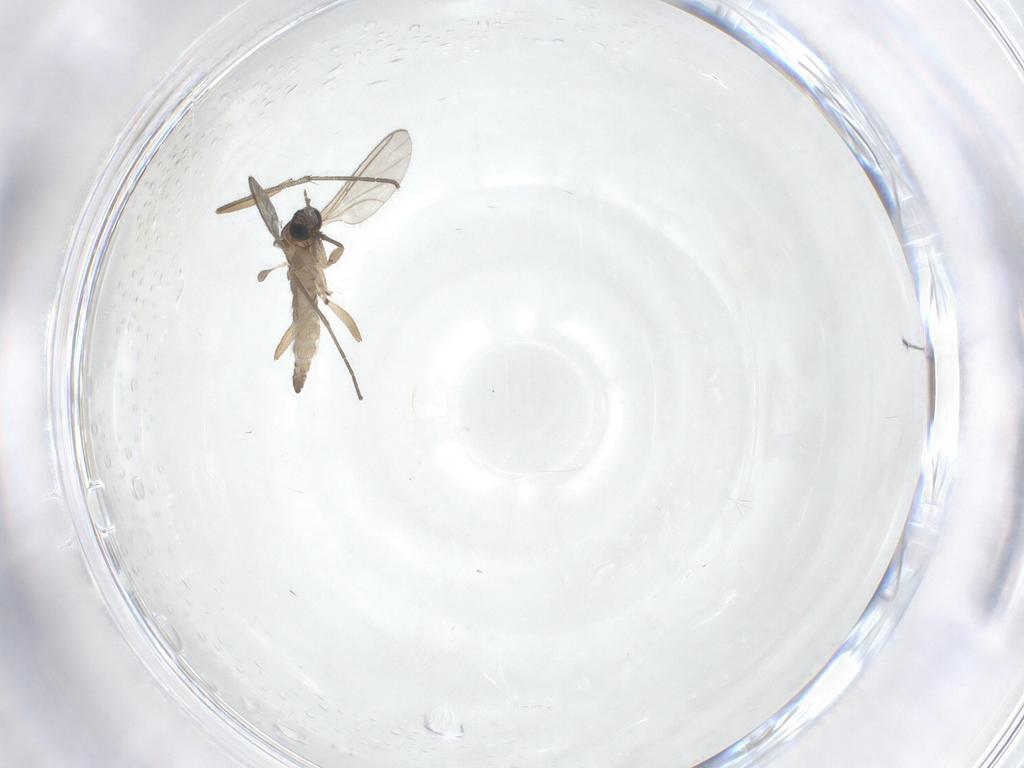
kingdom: Animalia
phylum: Arthropoda
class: Insecta
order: Diptera
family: Sciaridae
